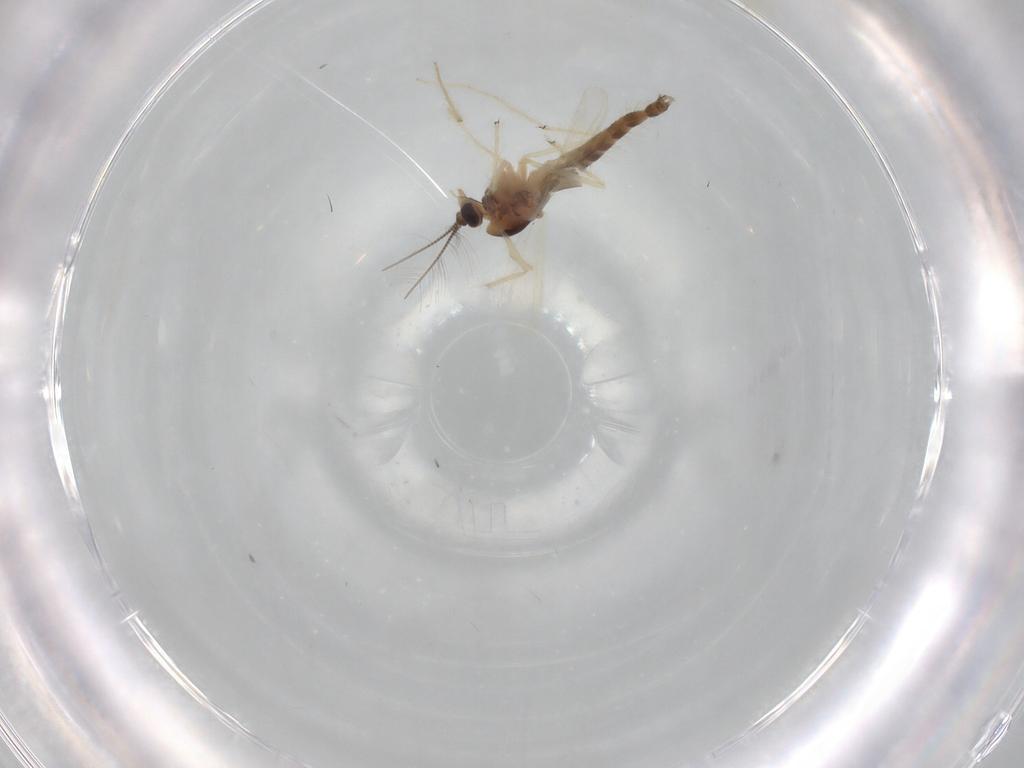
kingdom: Animalia
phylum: Arthropoda
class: Insecta
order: Diptera
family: Chironomidae
